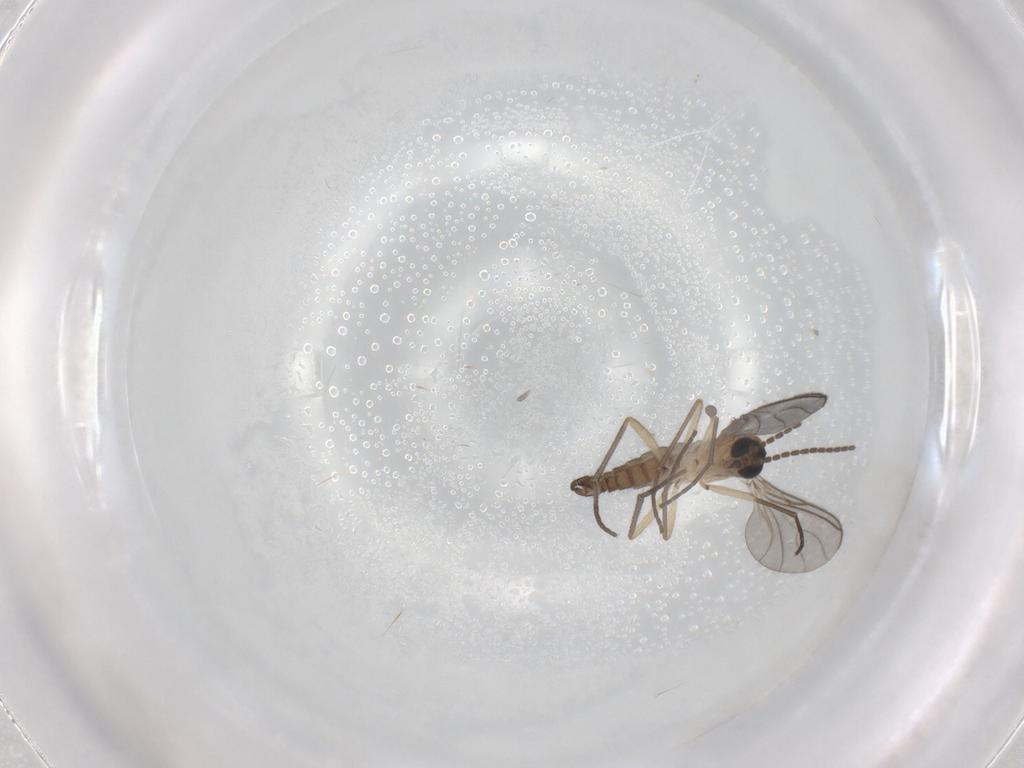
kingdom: Animalia
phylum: Arthropoda
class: Insecta
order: Diptera
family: Sciaridae
